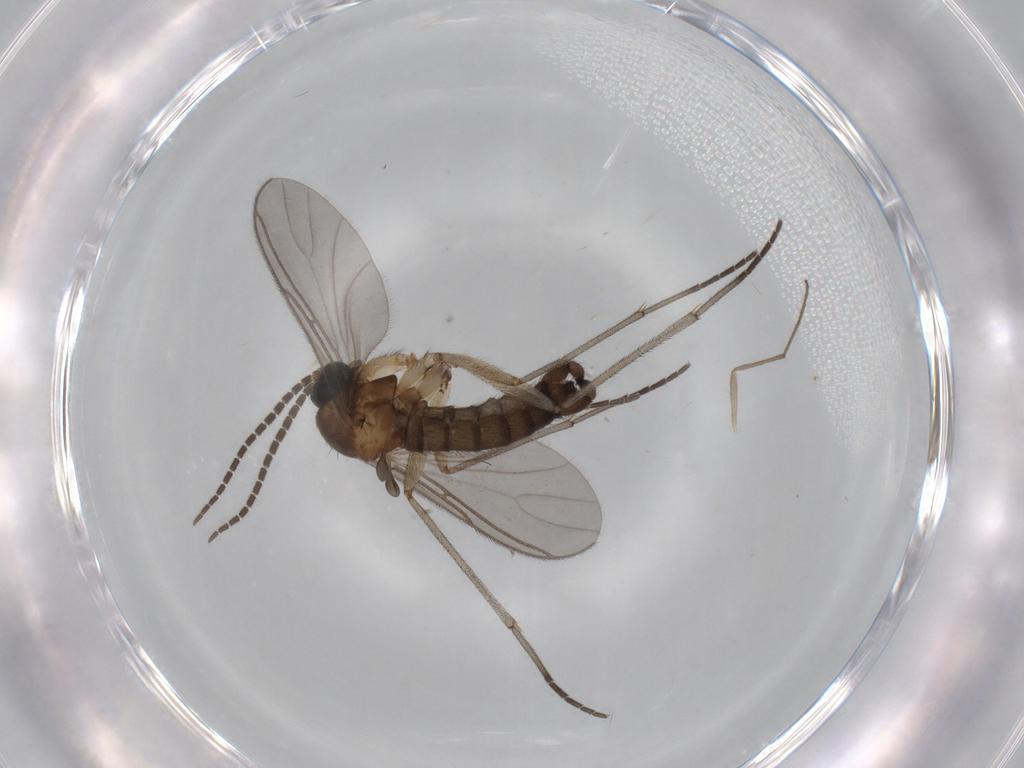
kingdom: Animalia
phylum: Arthropoda
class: Insecta
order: Diptera
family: Sciaridae
